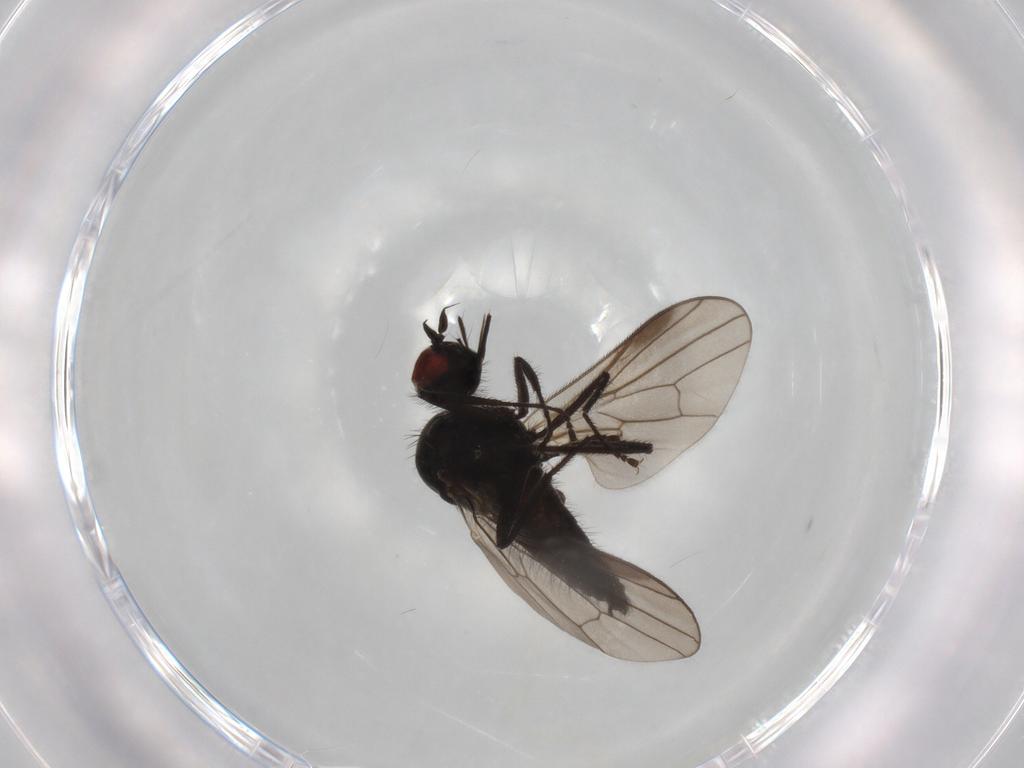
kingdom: Animalia
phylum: Arthropoda
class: Insecta
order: Diptera
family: Hybotidae
